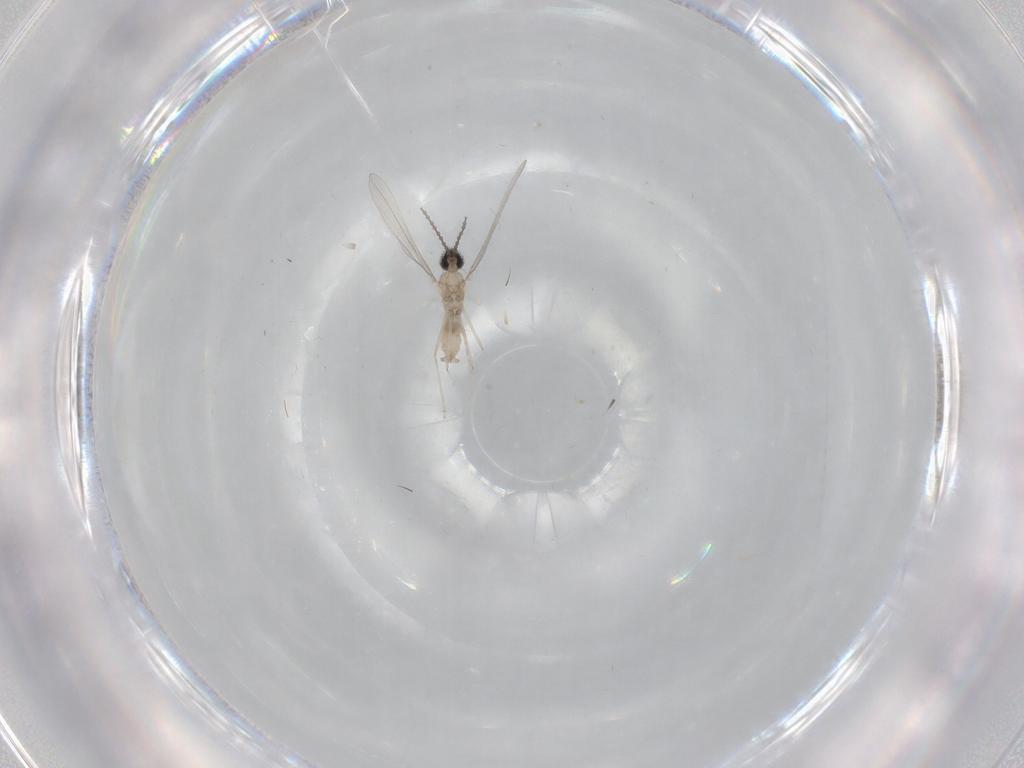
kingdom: Animalia
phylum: Arthropoda
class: Insecta
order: Diptera
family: Cecidomyiidae
